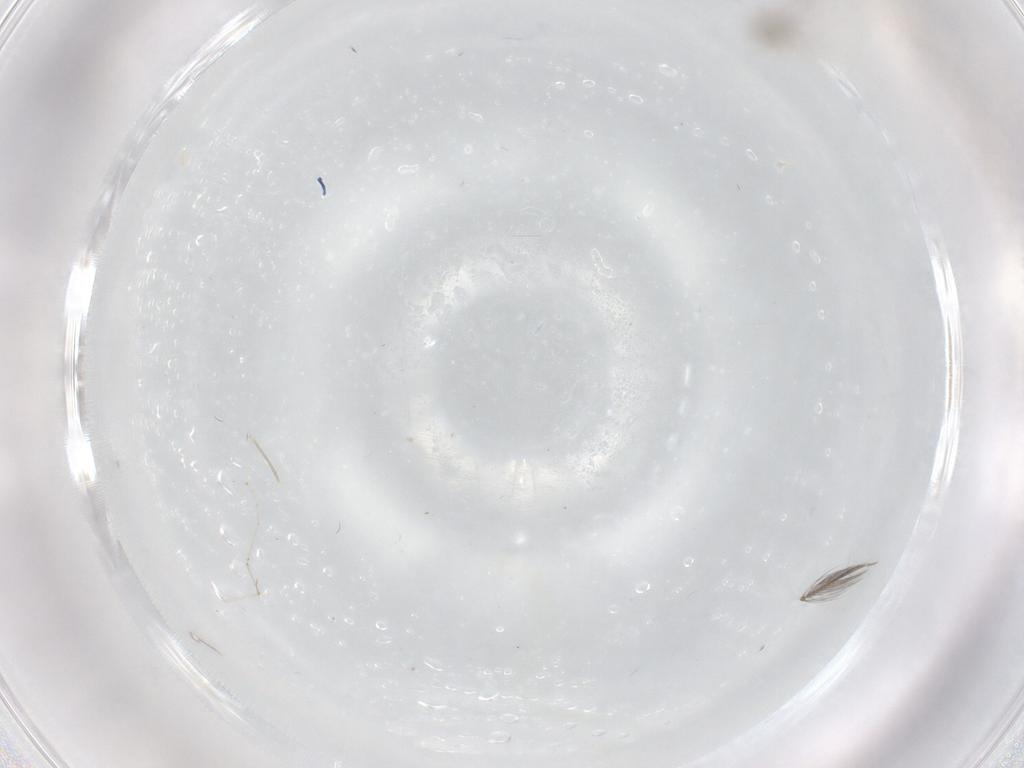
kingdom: Animalia
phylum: Arthropoda
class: Insecta
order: Diptera
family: Cecidomyiidae
